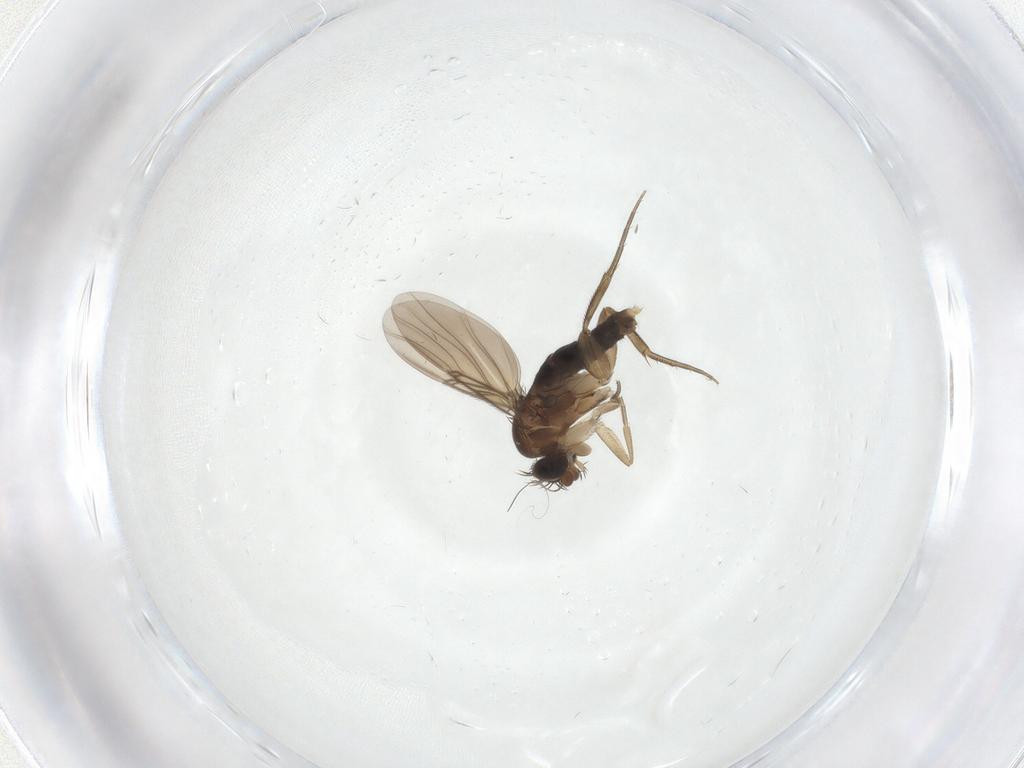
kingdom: Animalia
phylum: Arthropoda
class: Insecta
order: Diptera
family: Phoridae
